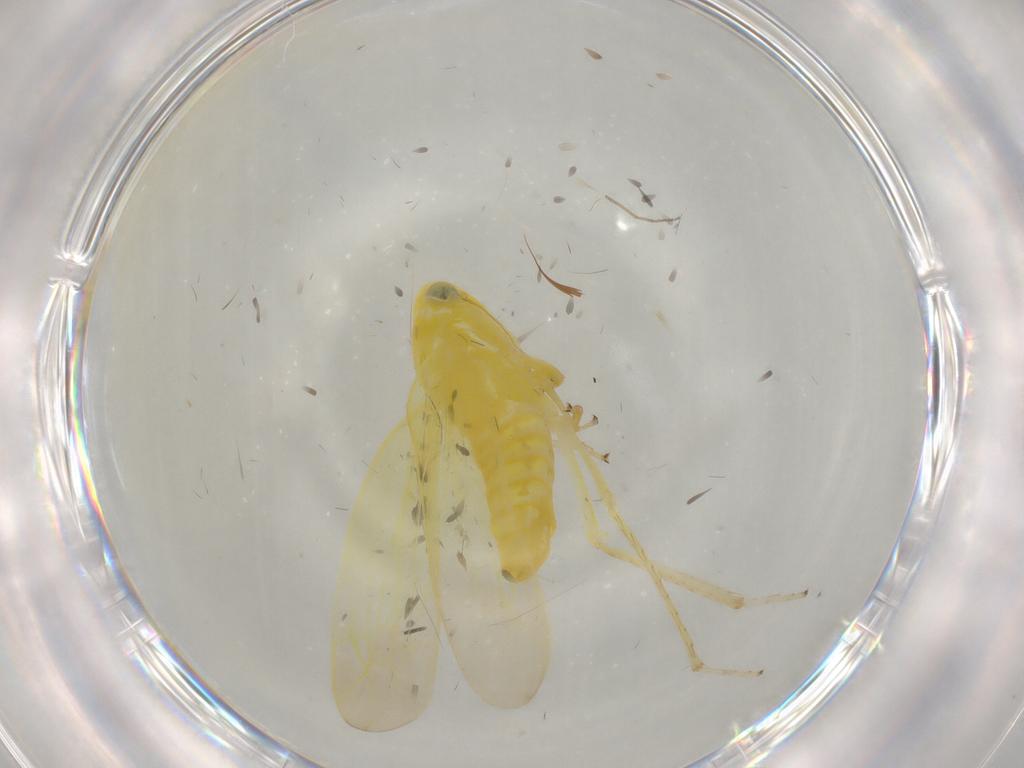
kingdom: Animalia
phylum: Arthropoda
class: Insecta
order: Hemiptera
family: Cicadellidae
